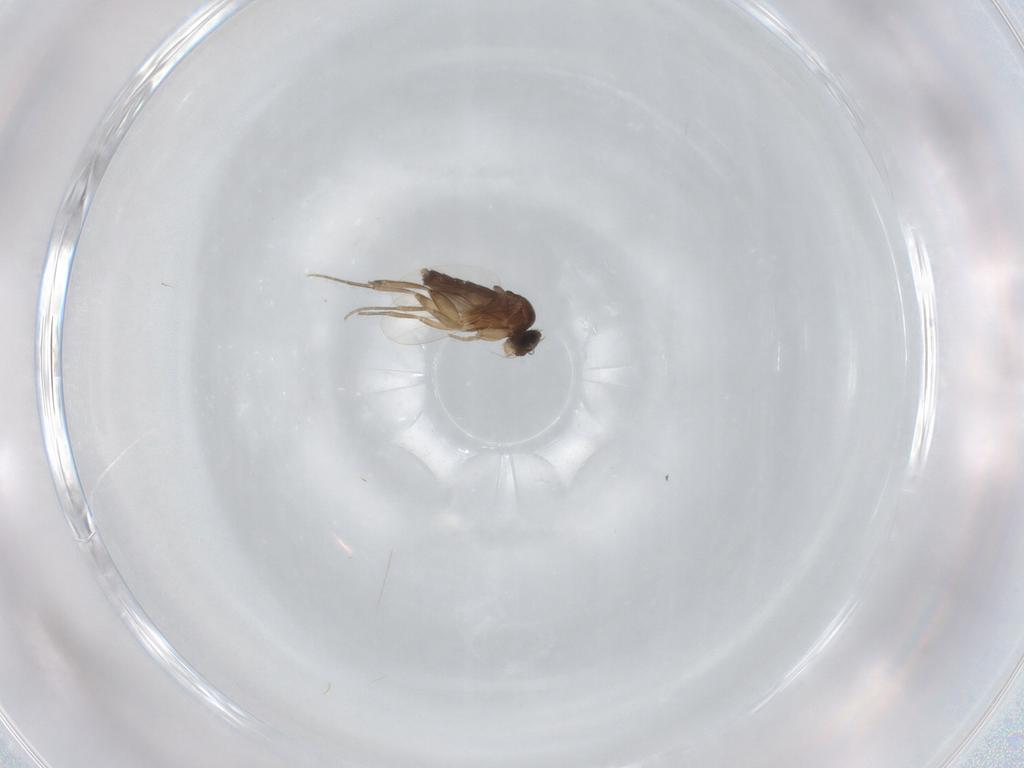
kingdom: Animalia
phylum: Arthropoda
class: Insecta
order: Diptera
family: Phoridae
